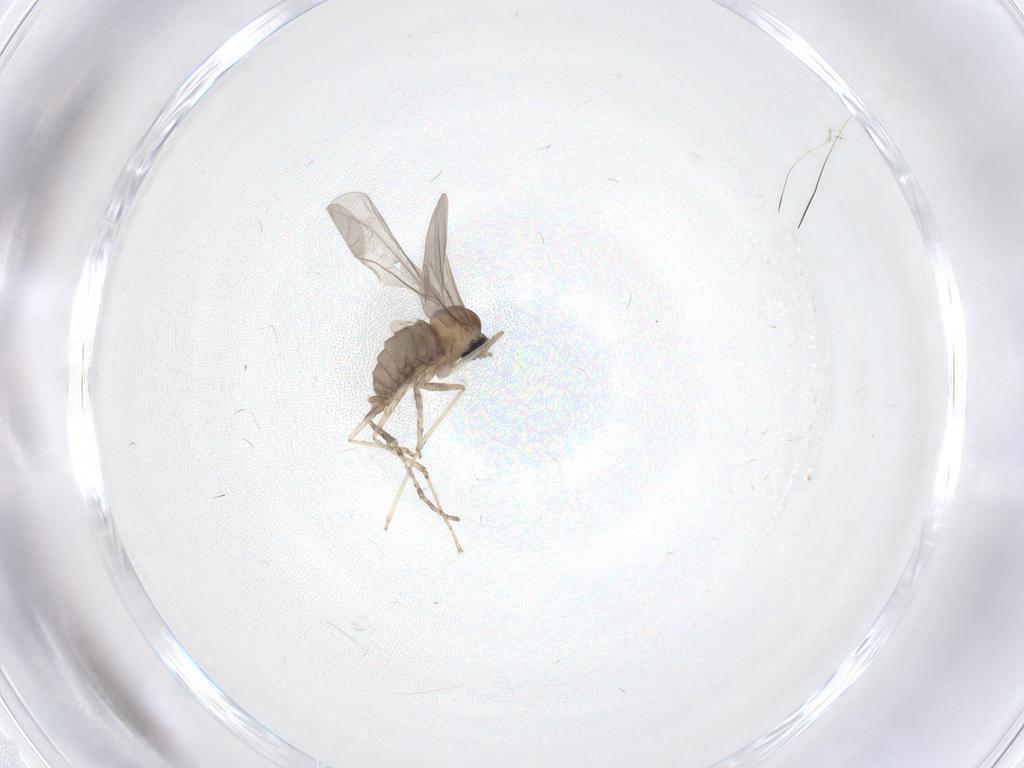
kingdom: Animalia
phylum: Arthropoda
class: Insecta
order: Diptera
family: Cecidomyiidae
